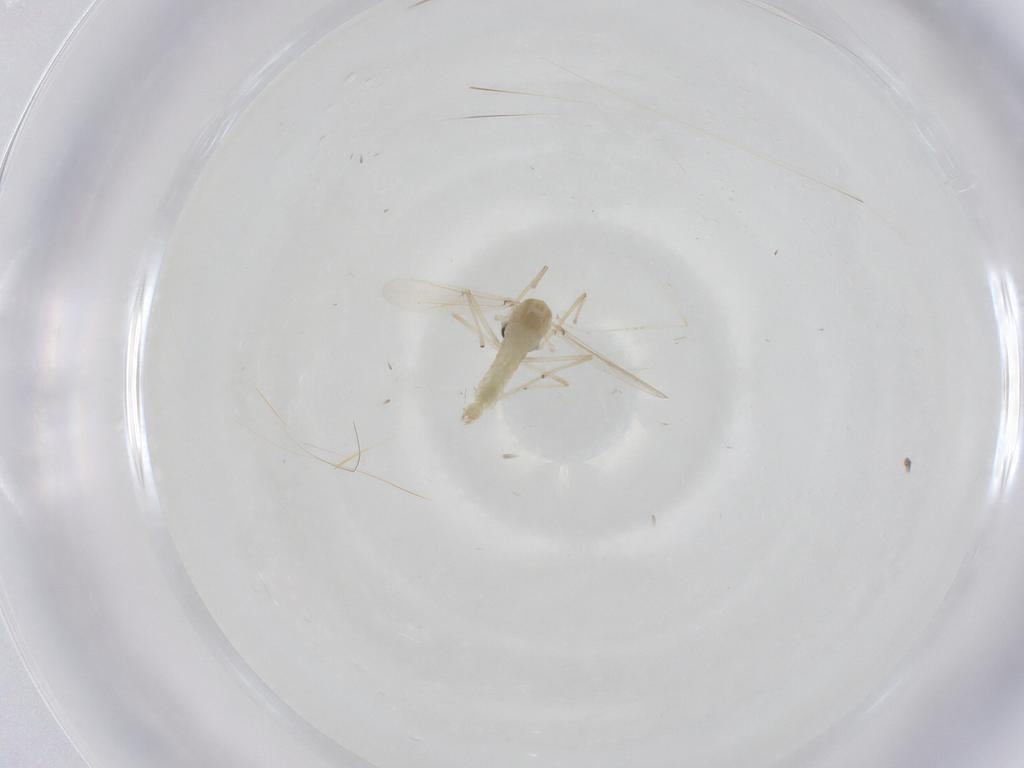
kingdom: Animalia
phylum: Arthropoda
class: Insecta
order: Diptera
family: Chironomidae
